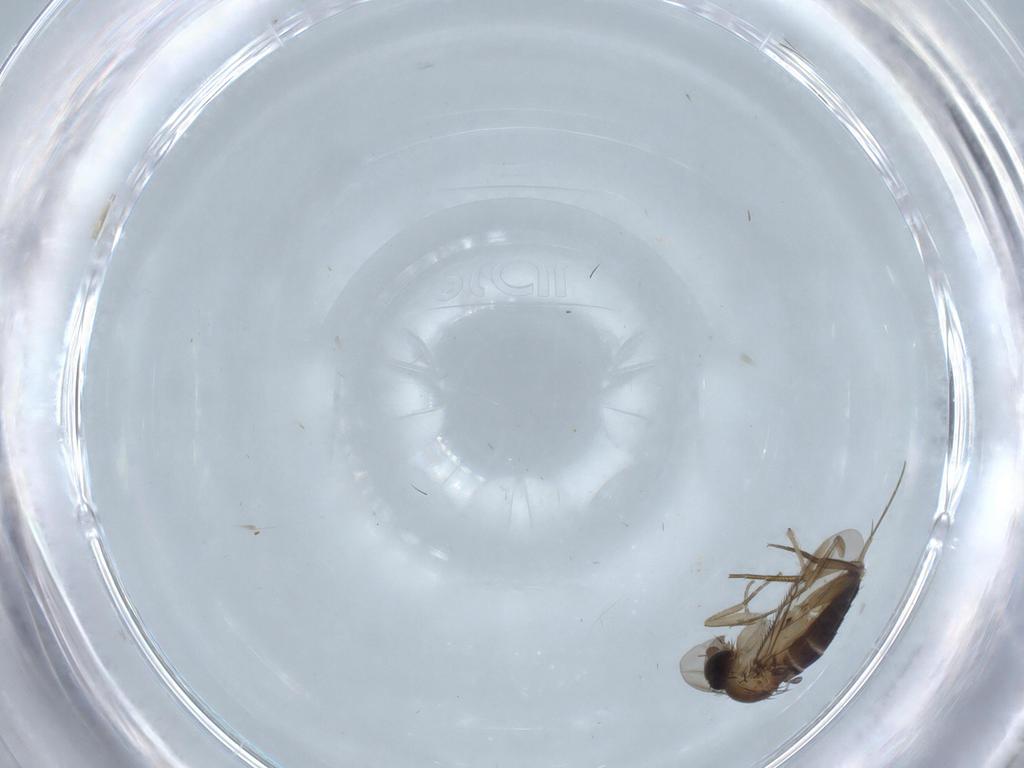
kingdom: Animalia
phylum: Arthropoda
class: Insecta
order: Diptera
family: Phoridae
